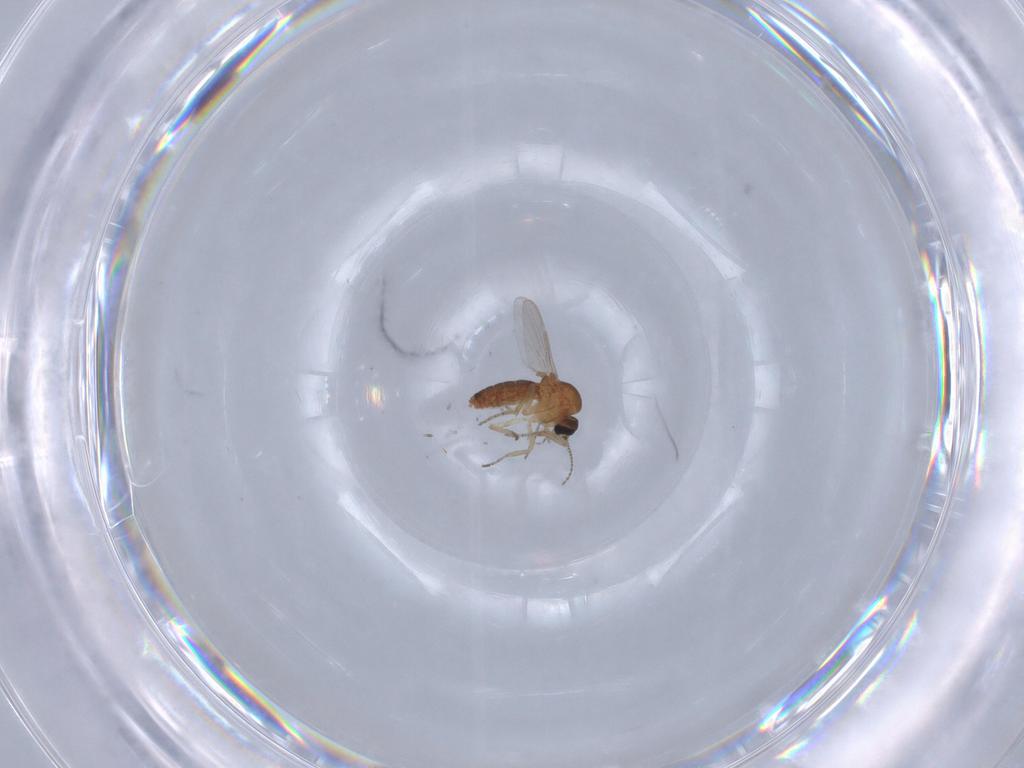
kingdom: Animalia
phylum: Arthropoda
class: Insecta
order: Diptera
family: Ceratopogonidae
